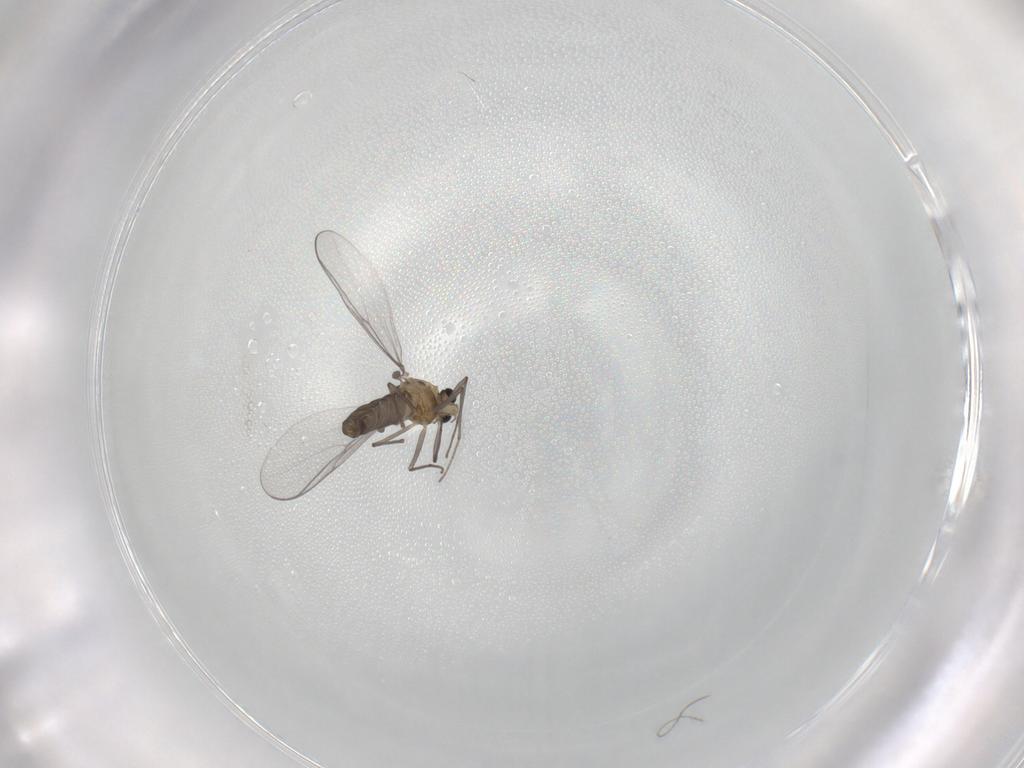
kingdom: Animalia
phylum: Arthropoda
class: Insecta
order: Diptera
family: Chironomidae
